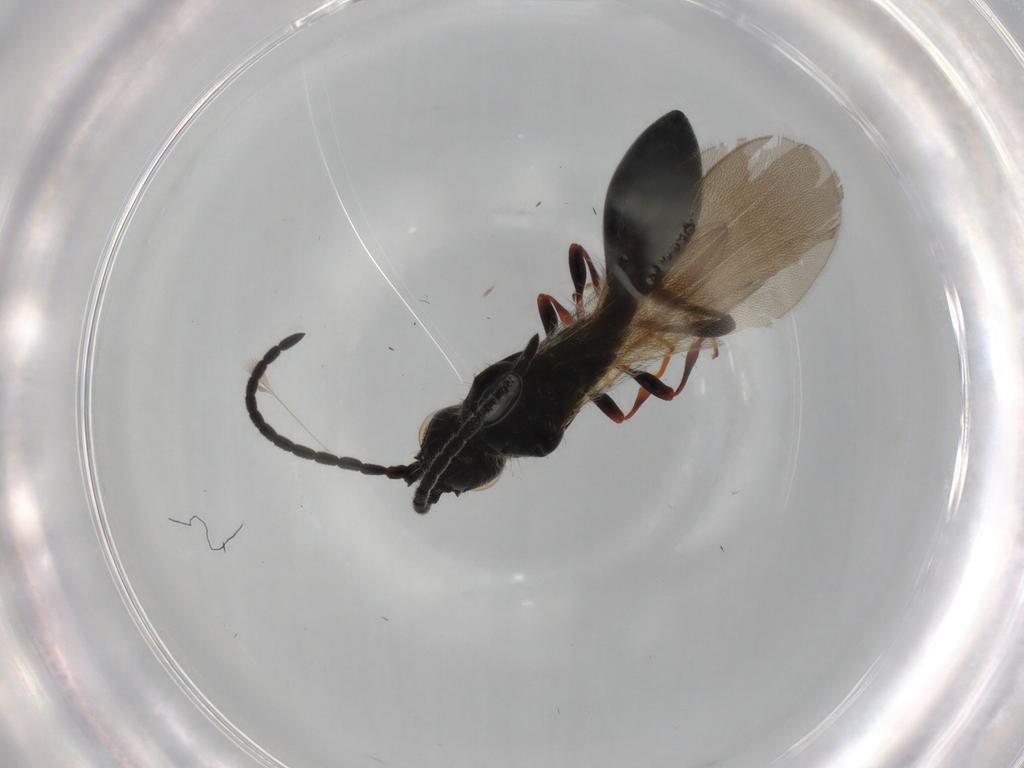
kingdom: Animalia
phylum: Arthropoda
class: Insecta
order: Hymenoptera
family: Diapriidae
